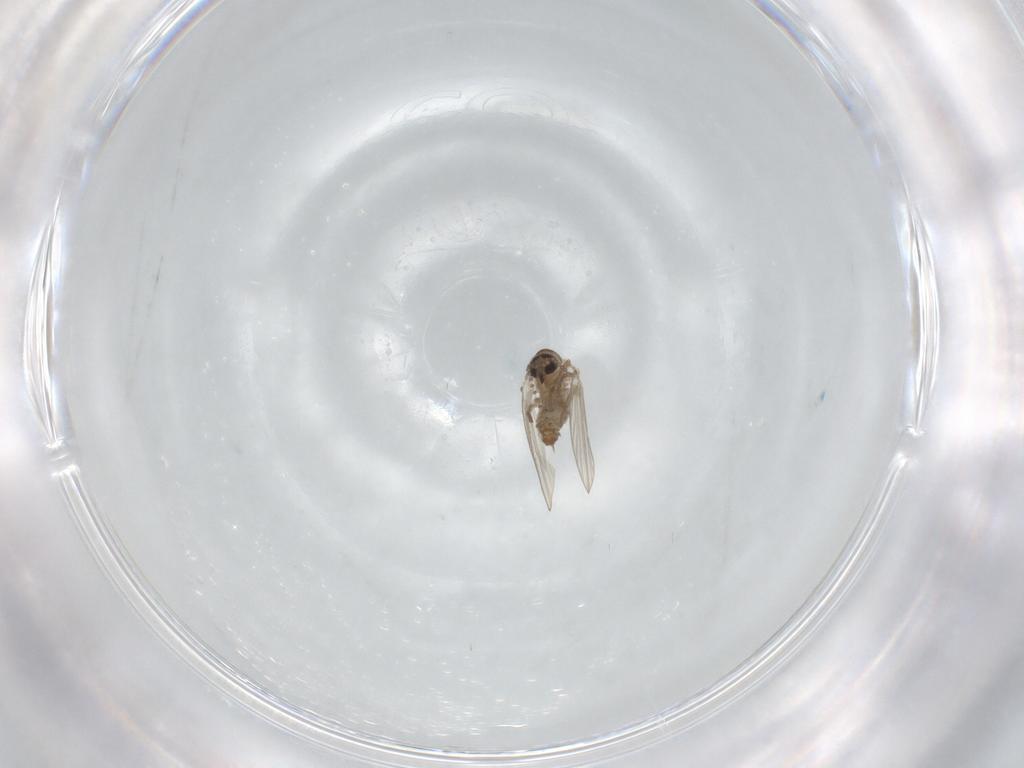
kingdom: Animalia
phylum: Arthropoda
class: Insecta
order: Diptera
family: Psychodidae
